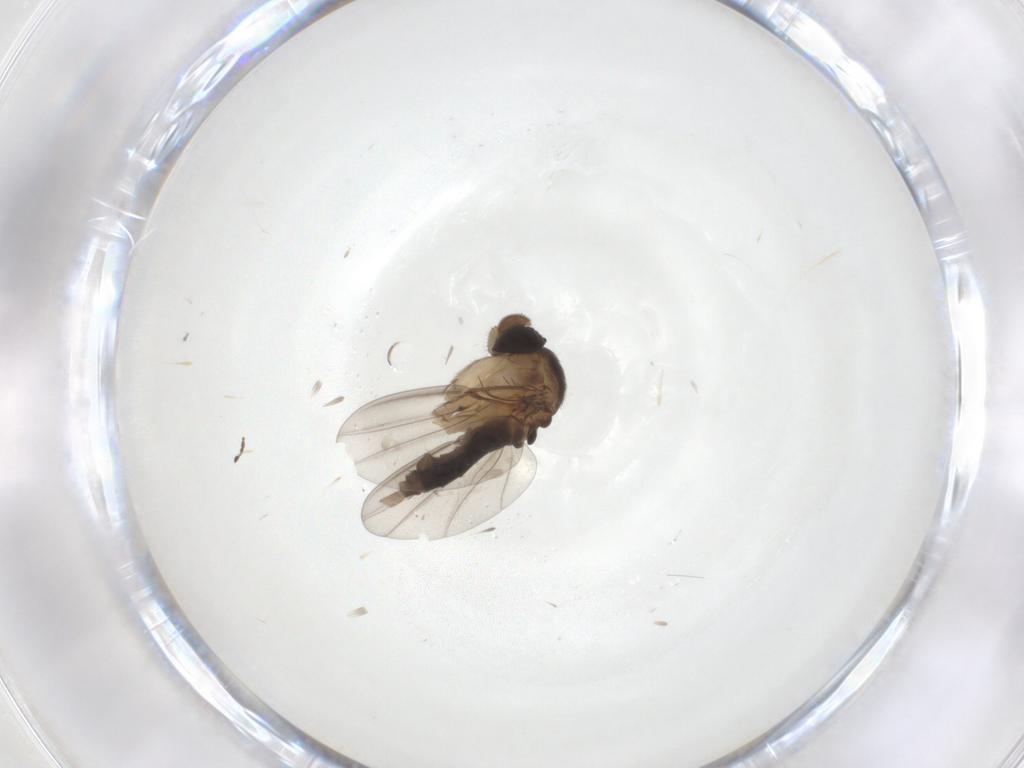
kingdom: Animalia
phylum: Arthropoda
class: Insecta
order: Diptera
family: Phoridae
